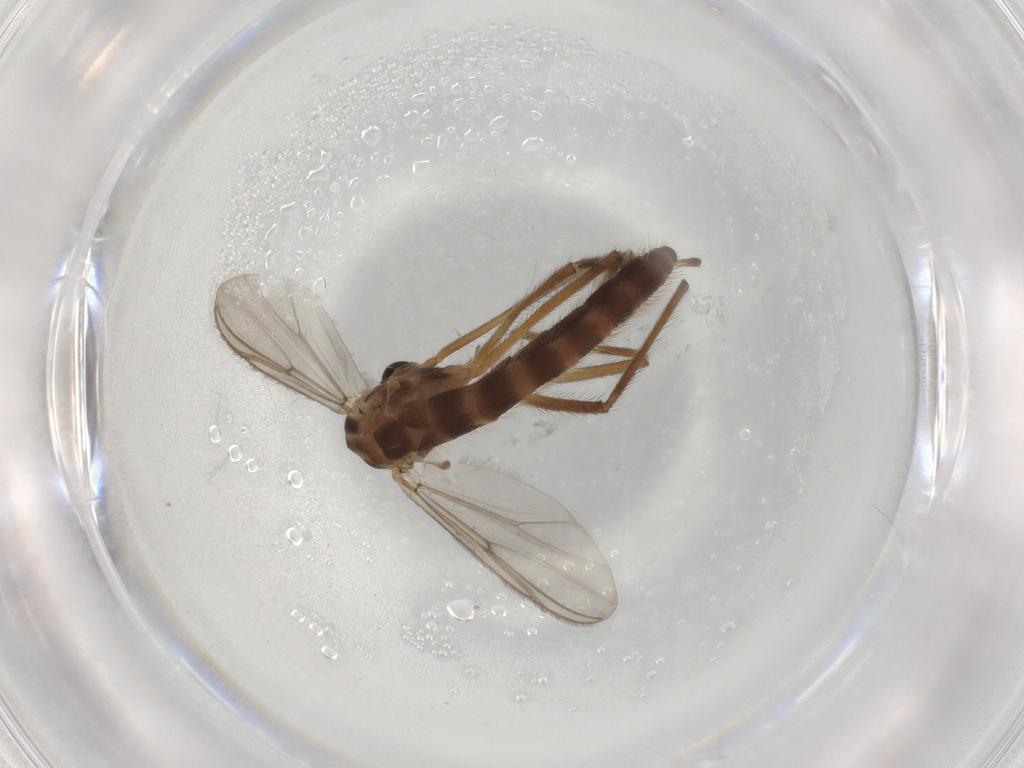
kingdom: Animalia
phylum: Arthropoda
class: Insecta
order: Diptera
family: Chironomidae
